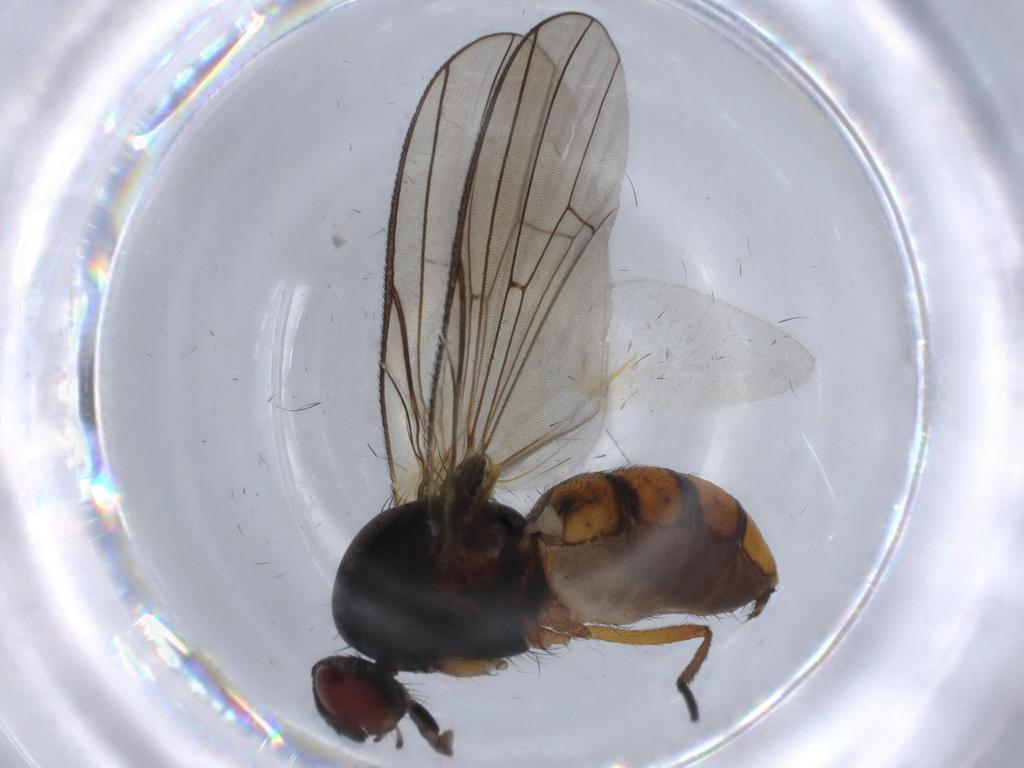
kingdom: Animalia
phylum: Arthropoda
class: Insecta
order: Diptera
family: Anthomyiidae
